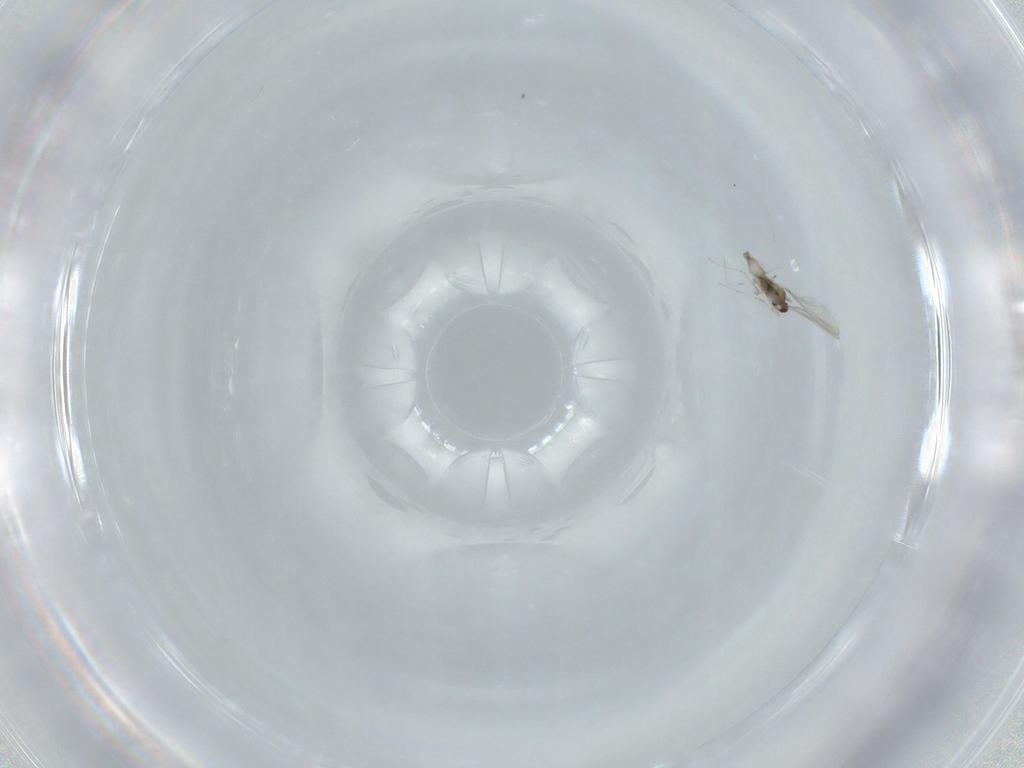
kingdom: Animalia
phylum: Arthropoda
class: Insecta
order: Diptera
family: Cecidomyiidae
